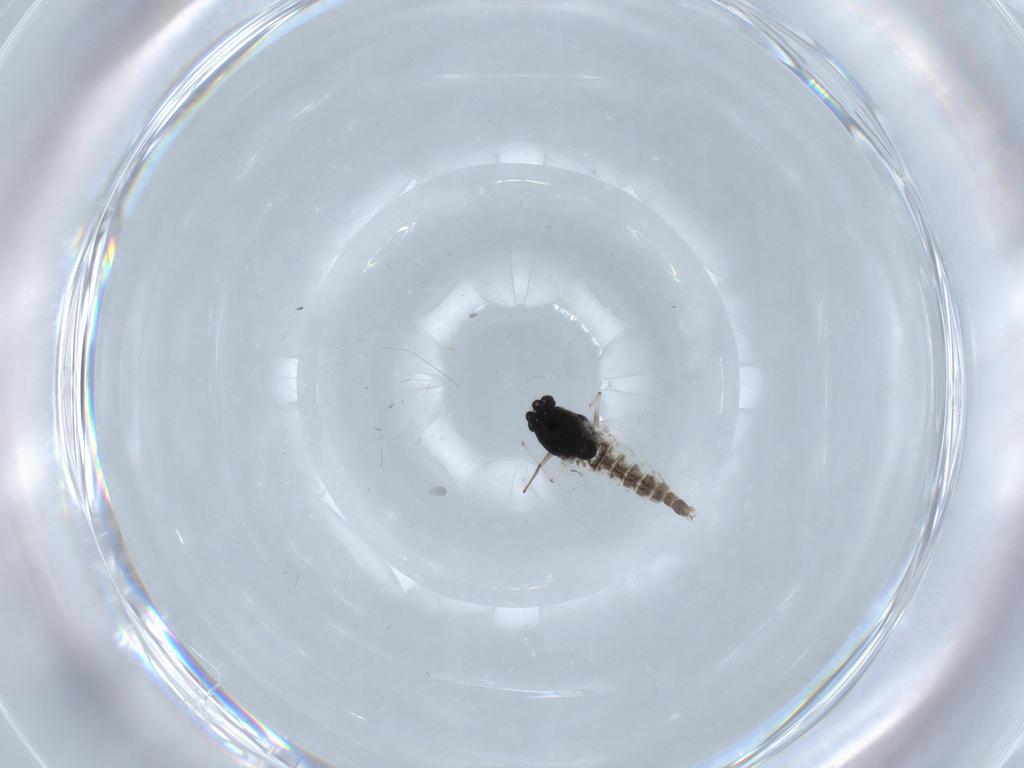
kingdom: Animalia
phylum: Arthropoda
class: Insecta
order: Diptera
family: Chironomidae
